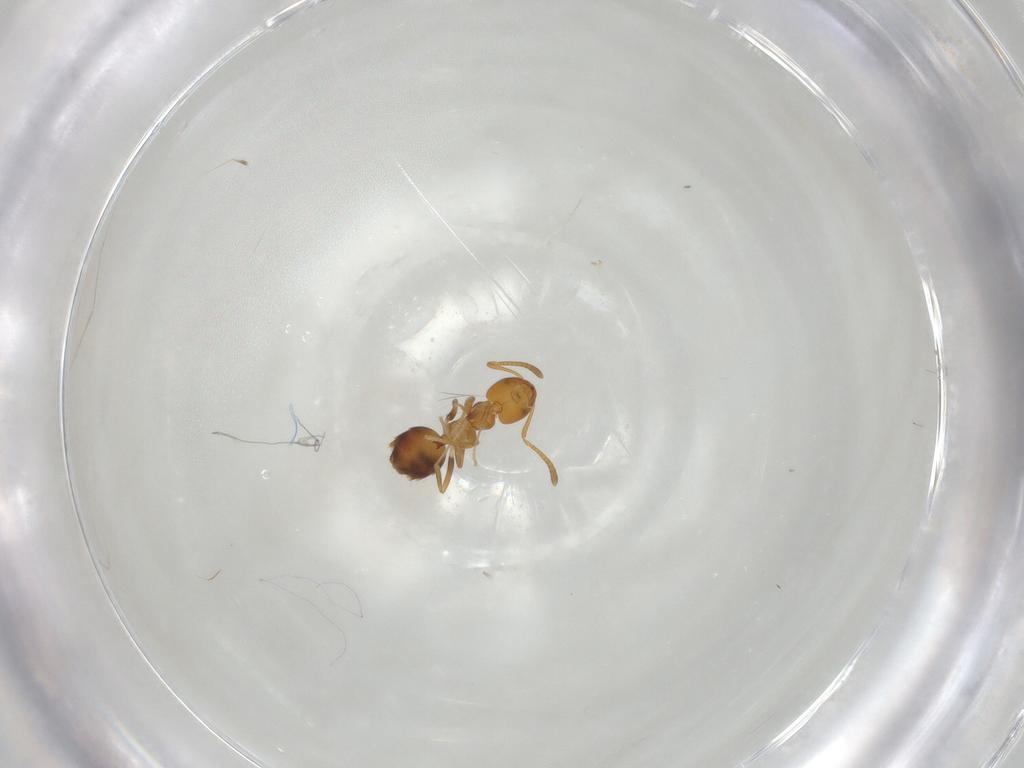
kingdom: Animalia
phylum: Arthropoda
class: Insecta
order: Hymenoptera
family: Formicidae
